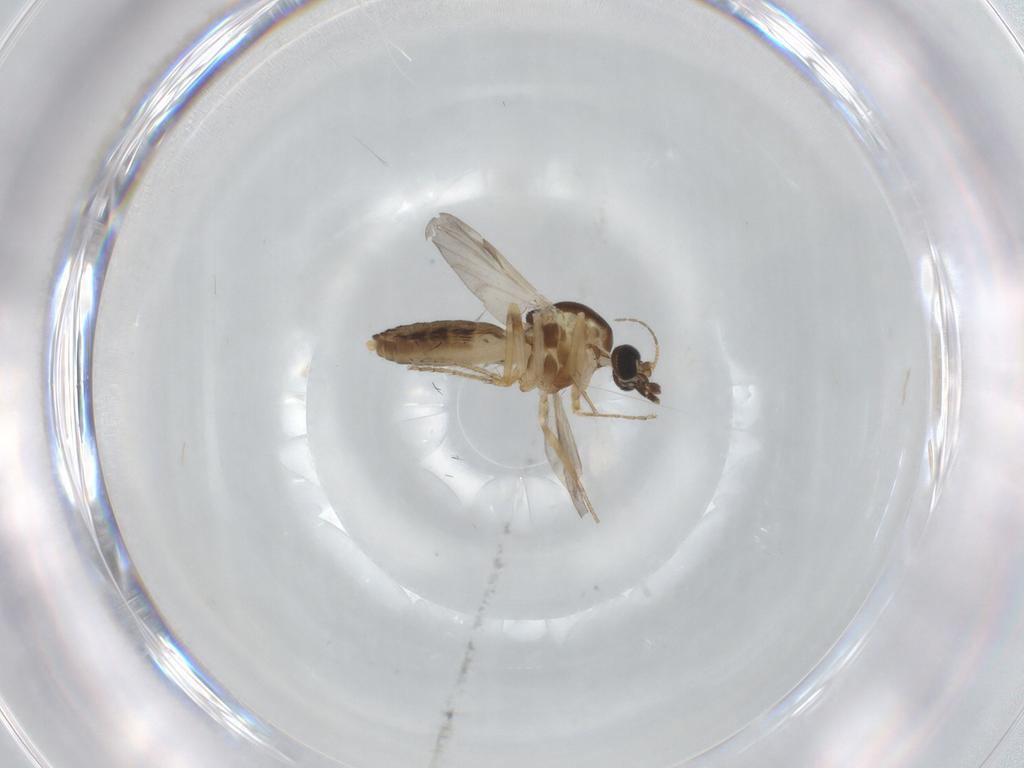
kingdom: Animalia
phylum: Arthropoda
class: Insecta
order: Diptera
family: Ceratopogonidae
